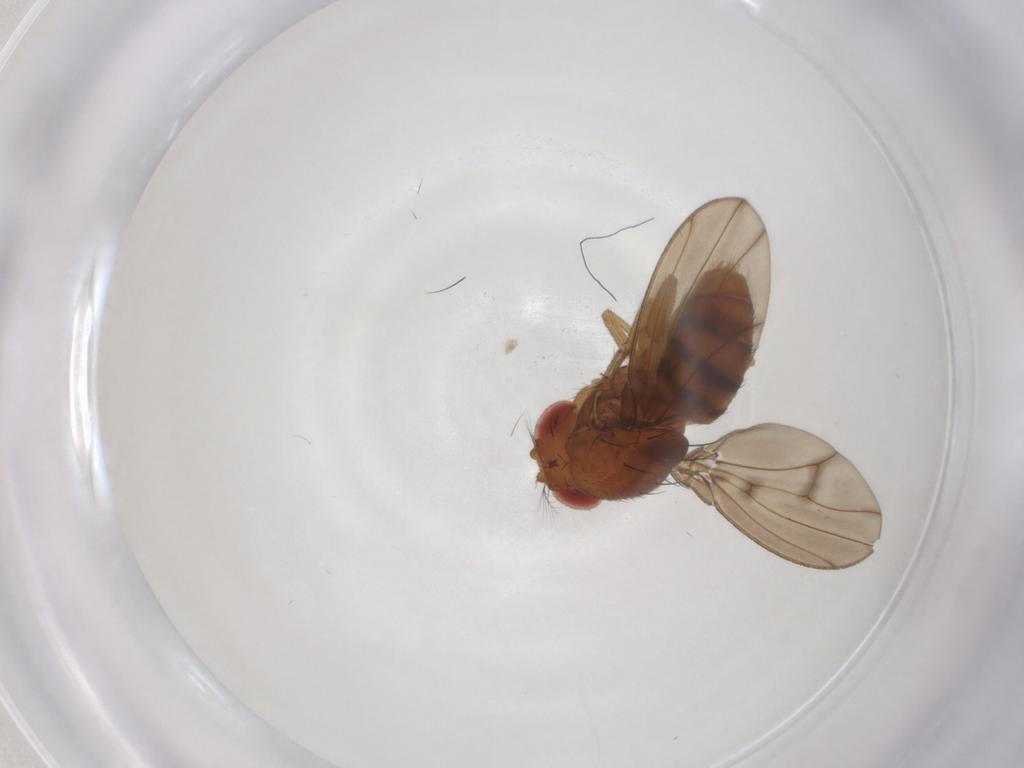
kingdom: Animalia
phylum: Arthropoda
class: Insecta
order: Diptera
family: Drosophilidae
